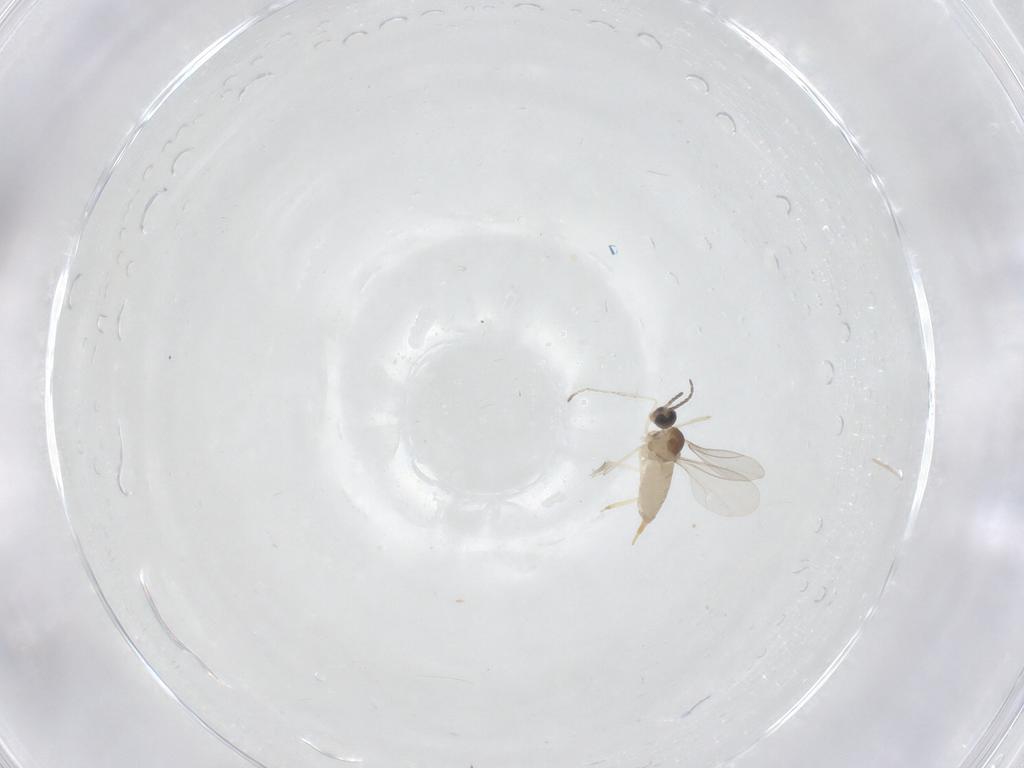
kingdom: Animalia
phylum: Arthropoda
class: Insecta
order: Diptera
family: Cecidomyiidae
